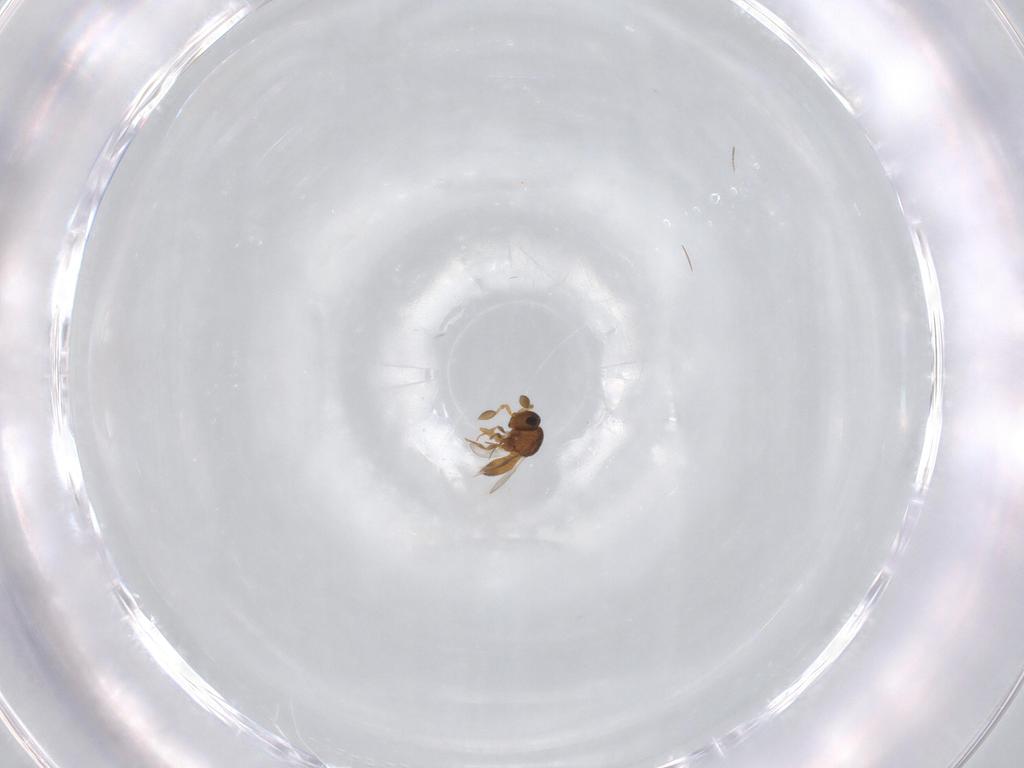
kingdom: Animalia
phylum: Arthropoda
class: Insecta
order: Hymenoptera
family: Scelionidae
